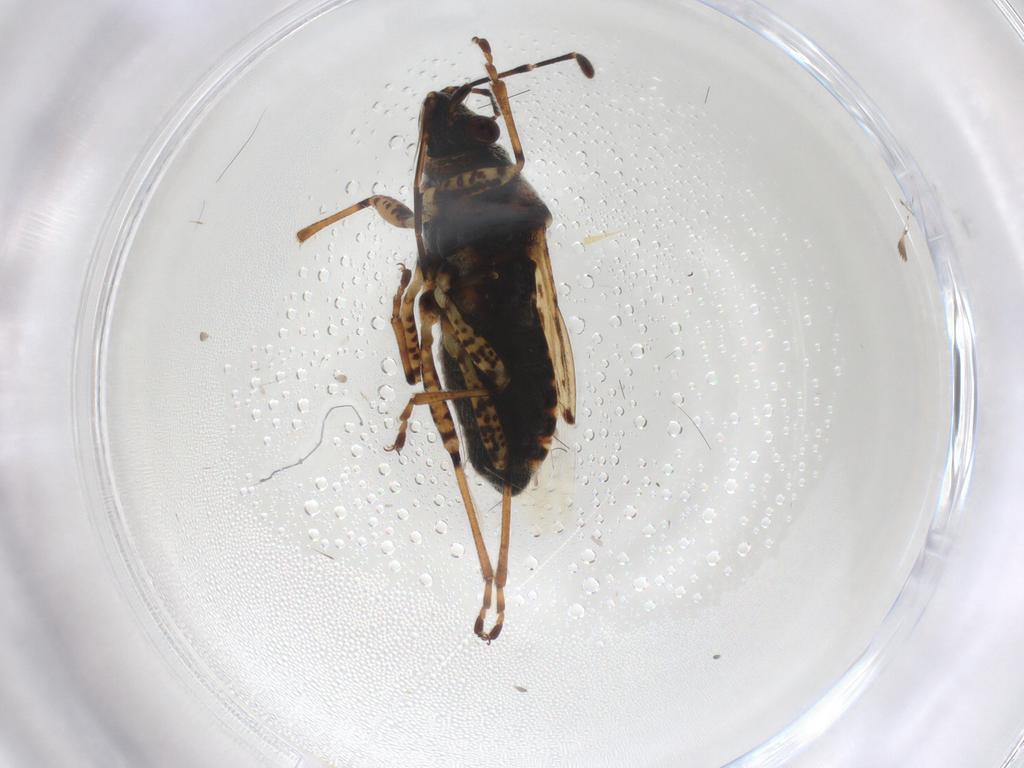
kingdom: Animalia
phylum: Arthropoda
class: Insecta
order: Hemiptera
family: Lygaeidae
